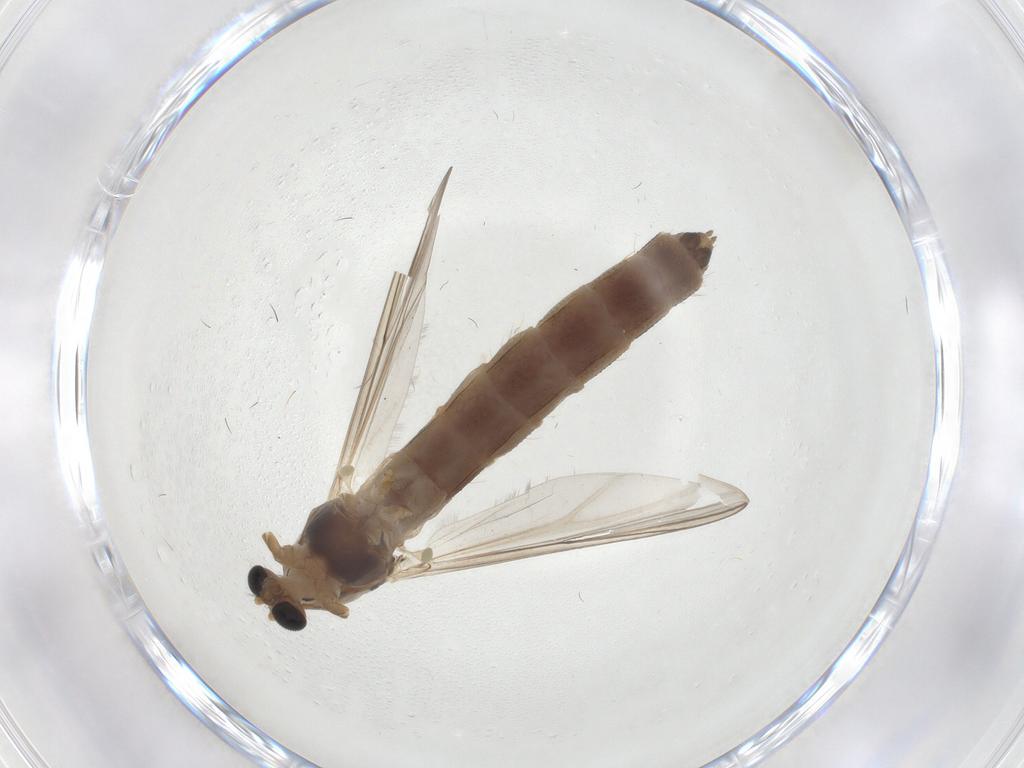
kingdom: Animalia
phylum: Arthropoda
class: Insecta
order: Diptera
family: Chironomidae
